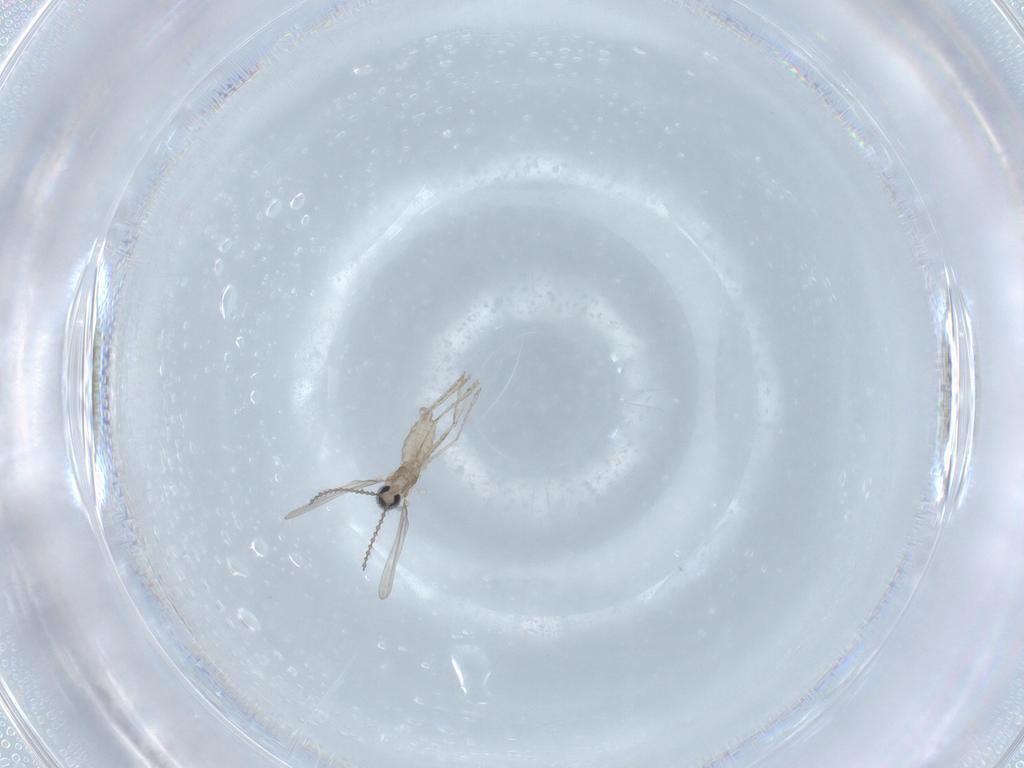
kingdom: Animalia
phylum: Arthropoda
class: Insecta
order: Diptera
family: Cecidomyiidae
